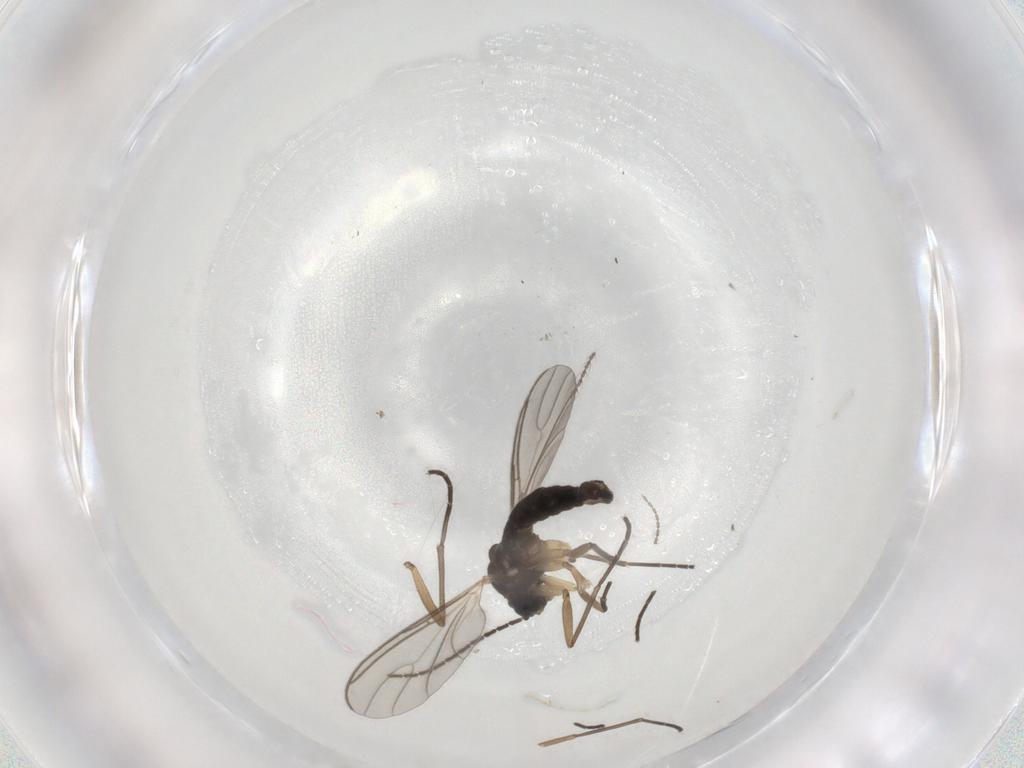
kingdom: Animalia
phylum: Arthropoda
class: Insecta
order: Diptera
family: Sciaridae
